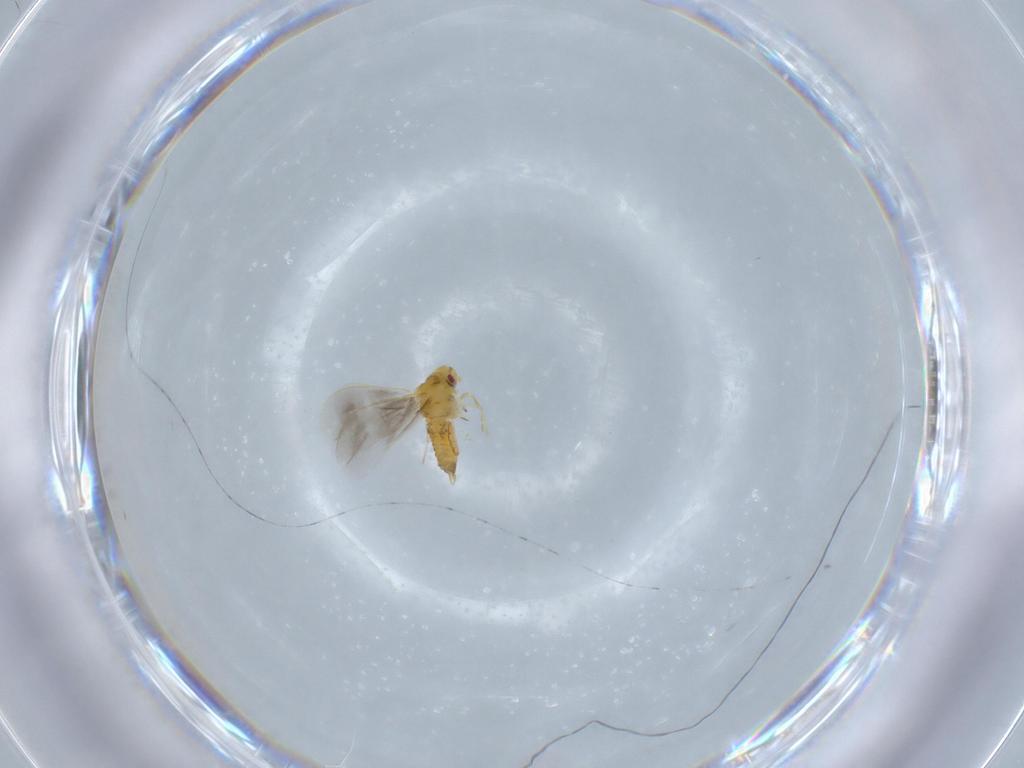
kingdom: Animalia
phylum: Arthropoda
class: Insecta
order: Hemiptera
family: Aleyrodidae
